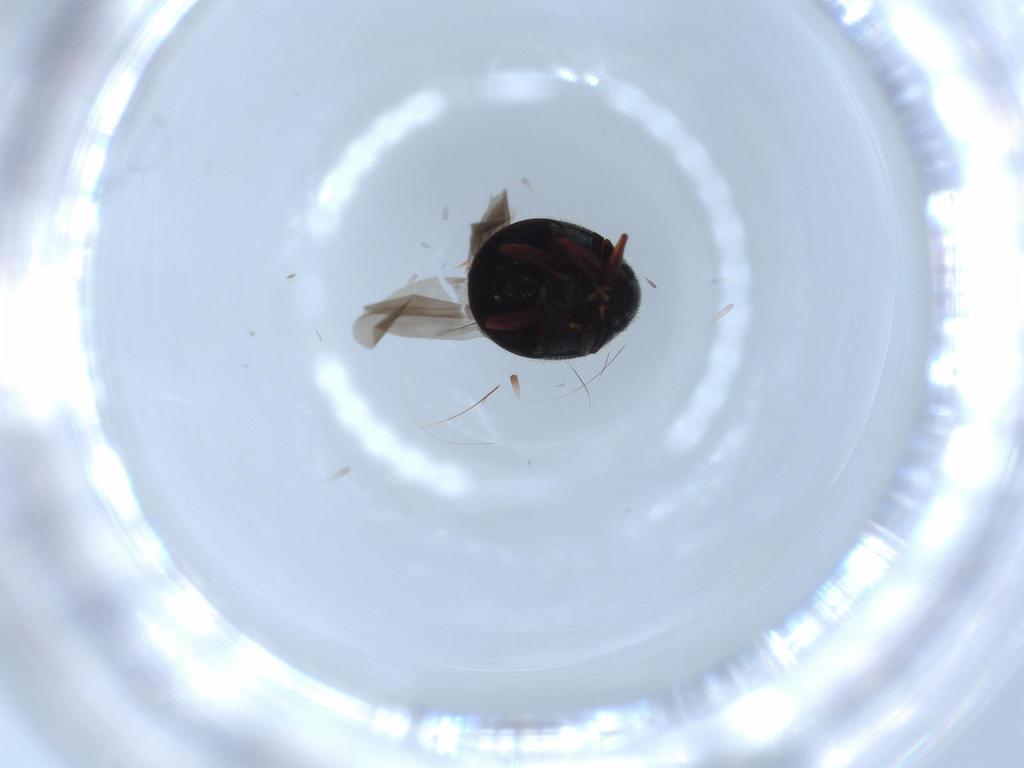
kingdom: Animalia
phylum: Arthropoda
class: Insecta
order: Coleoptera
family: Ptinidae
